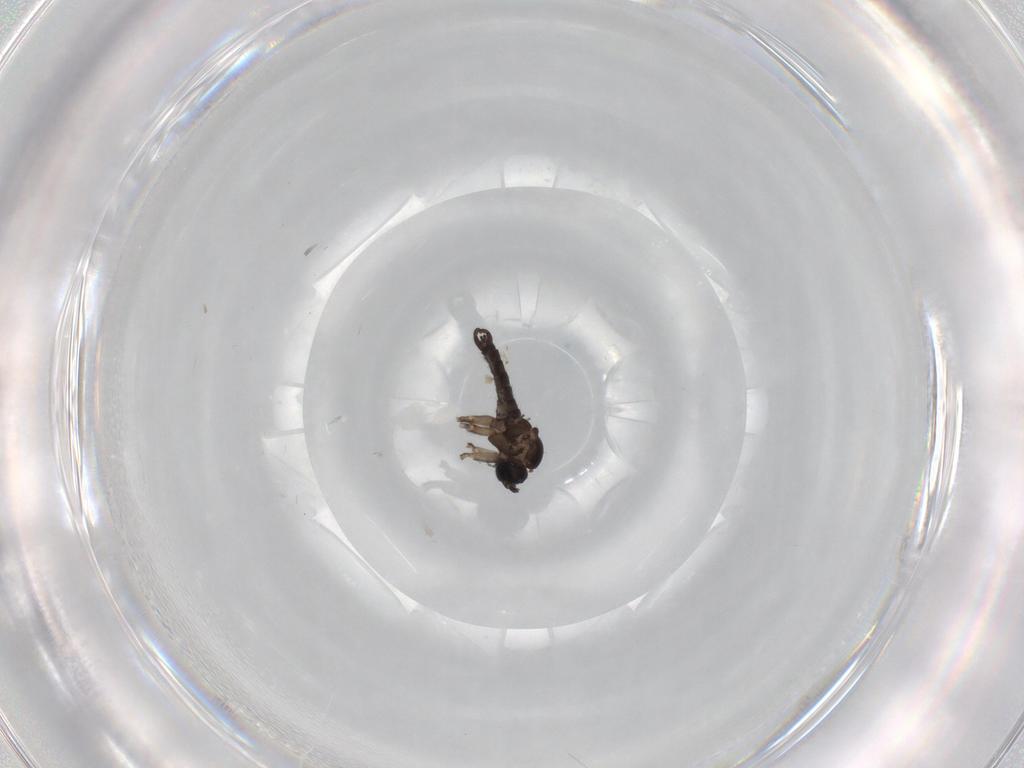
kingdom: Animalia
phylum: Arthropoda
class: Insecta
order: Diptera
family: Sciaridae
